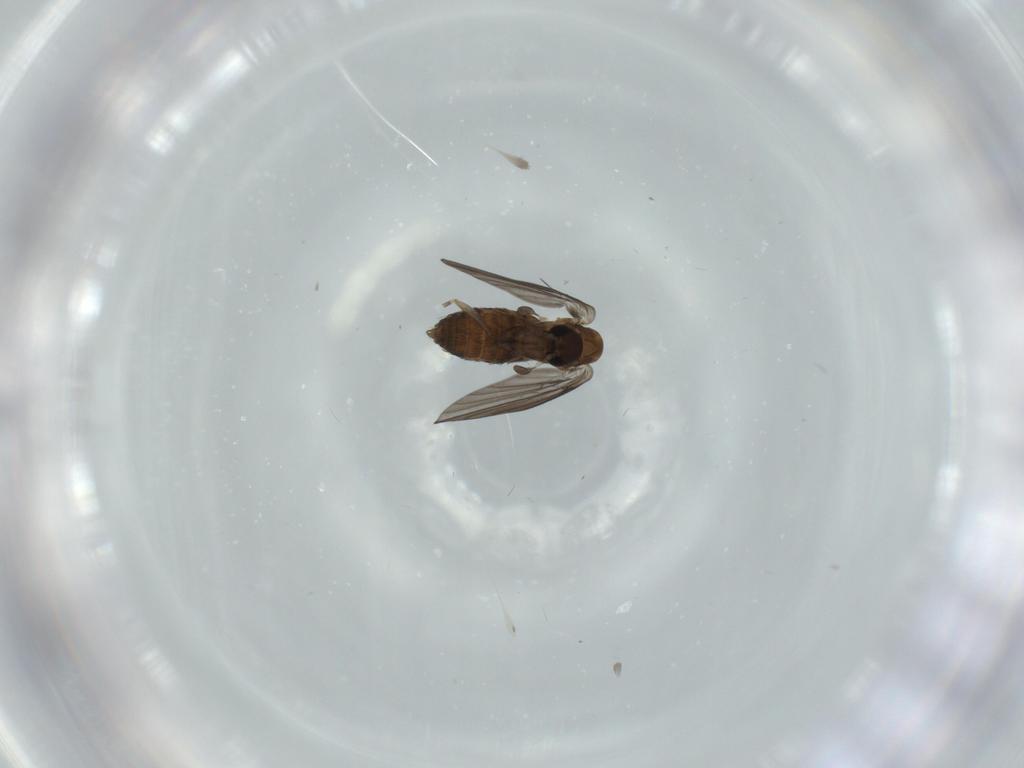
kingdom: Animalia
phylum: Arthropoda
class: Insecta
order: Diptera
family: Psychodidae
